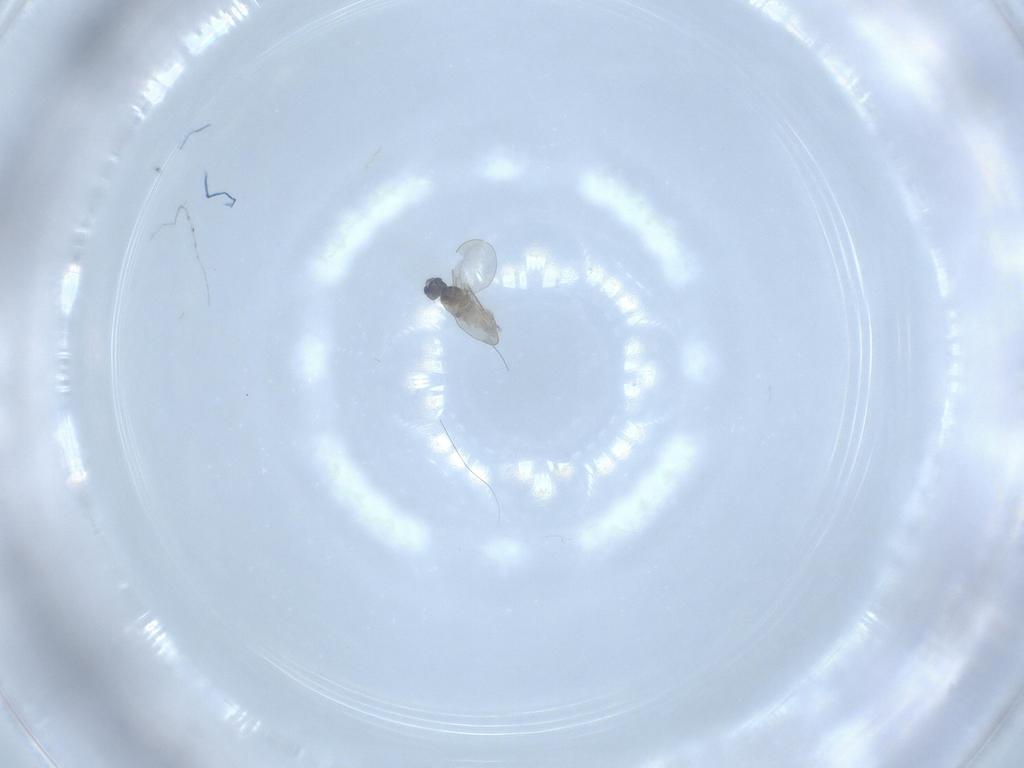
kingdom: Animalia
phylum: Arthropoda
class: Insecta
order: Diptera
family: Cecidomyiidae
